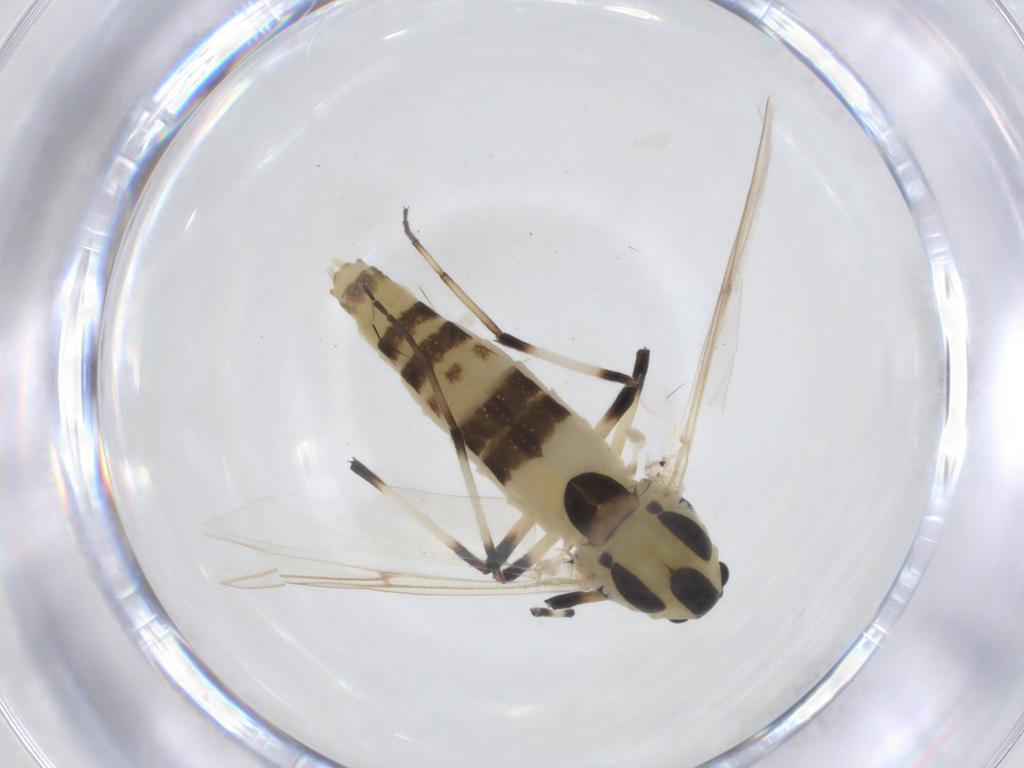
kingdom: Animalia
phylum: Arthropoda
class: Insecta
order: Diptera
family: Chironomidae
